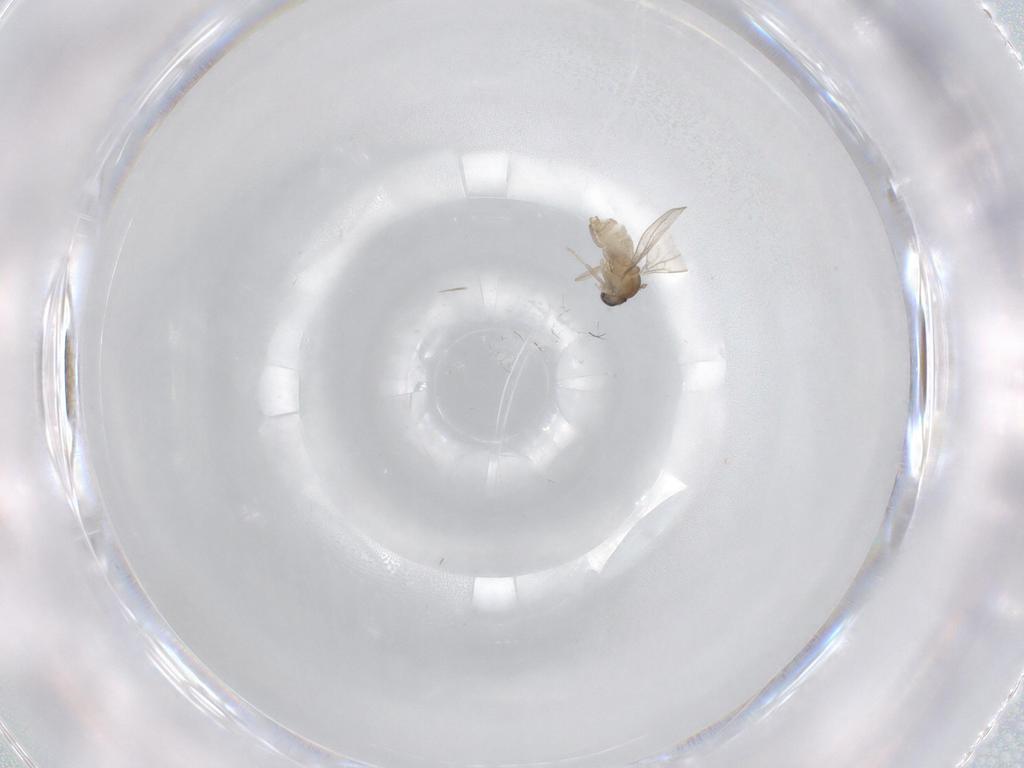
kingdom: Animalia
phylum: Arthropoda
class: Insecta
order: Diptera
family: Cecidomyiidae
